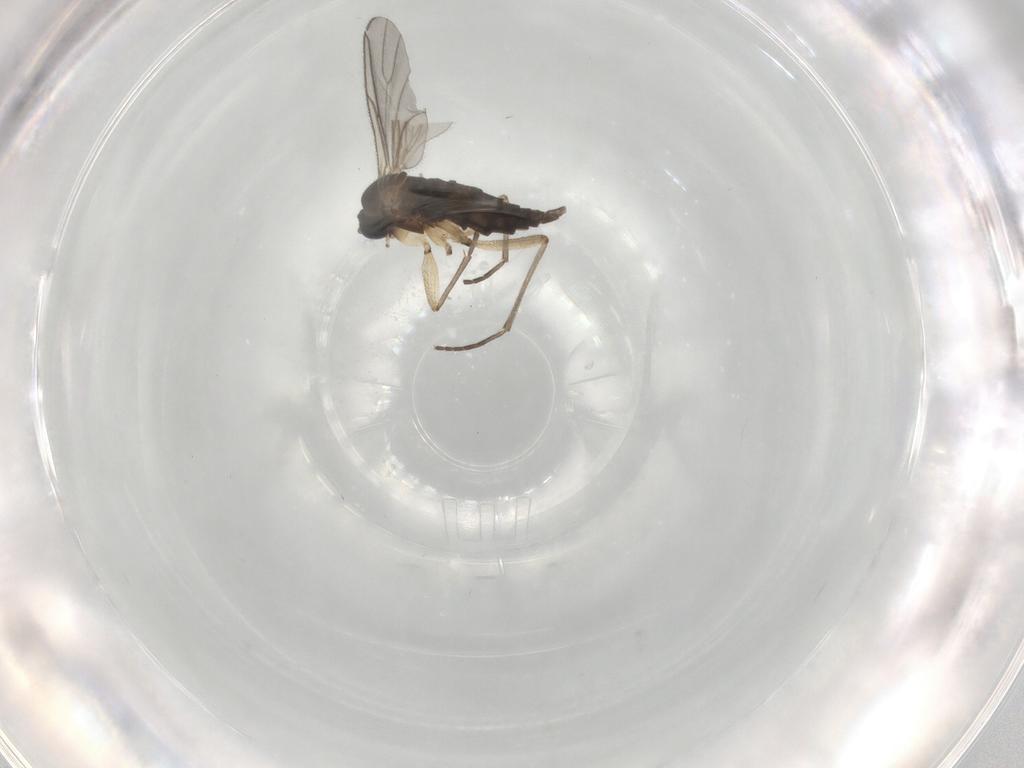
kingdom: Animalia
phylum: Arthropoda
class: Insecta
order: Diptera
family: Sciaridae
